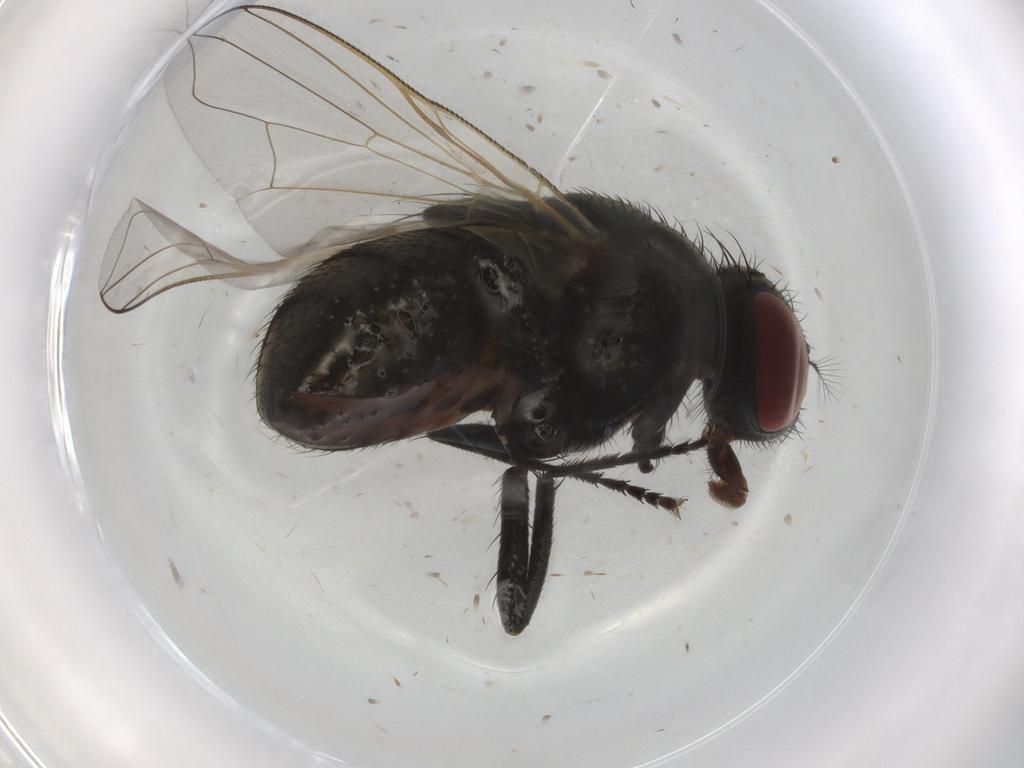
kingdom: Animalia
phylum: Arthropoda
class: Insecta
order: Diptera
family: Muscidae
